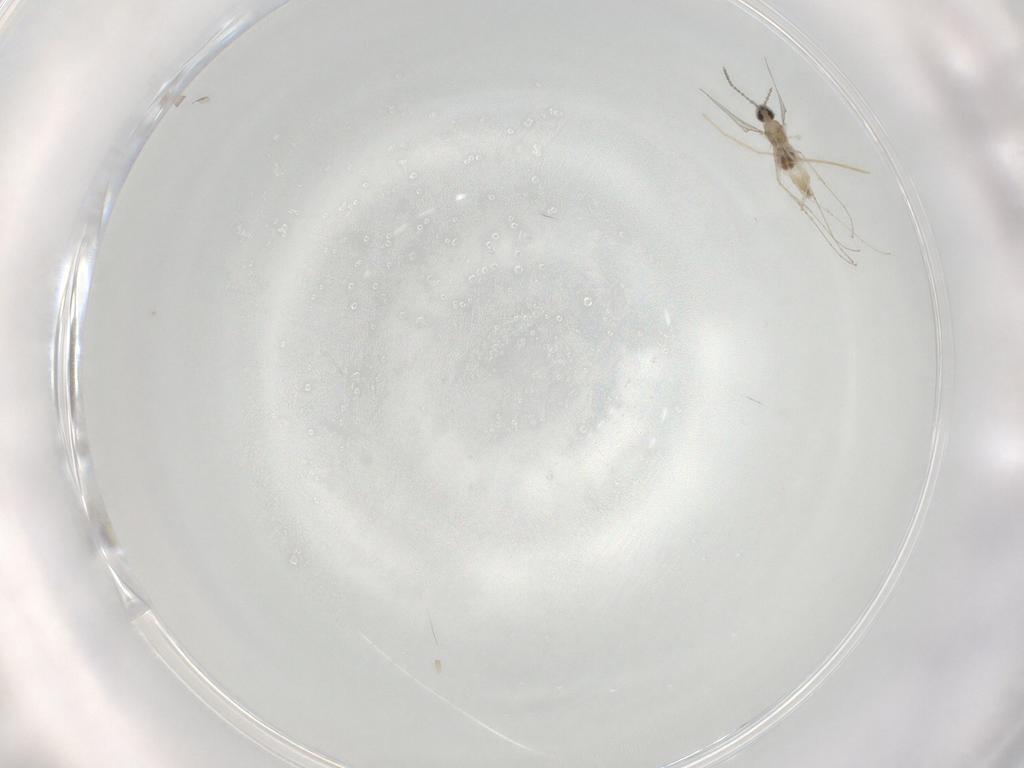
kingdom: Animalia
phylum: Arthropoda
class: Insecta
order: Diptera
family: Cecidomyiidae
